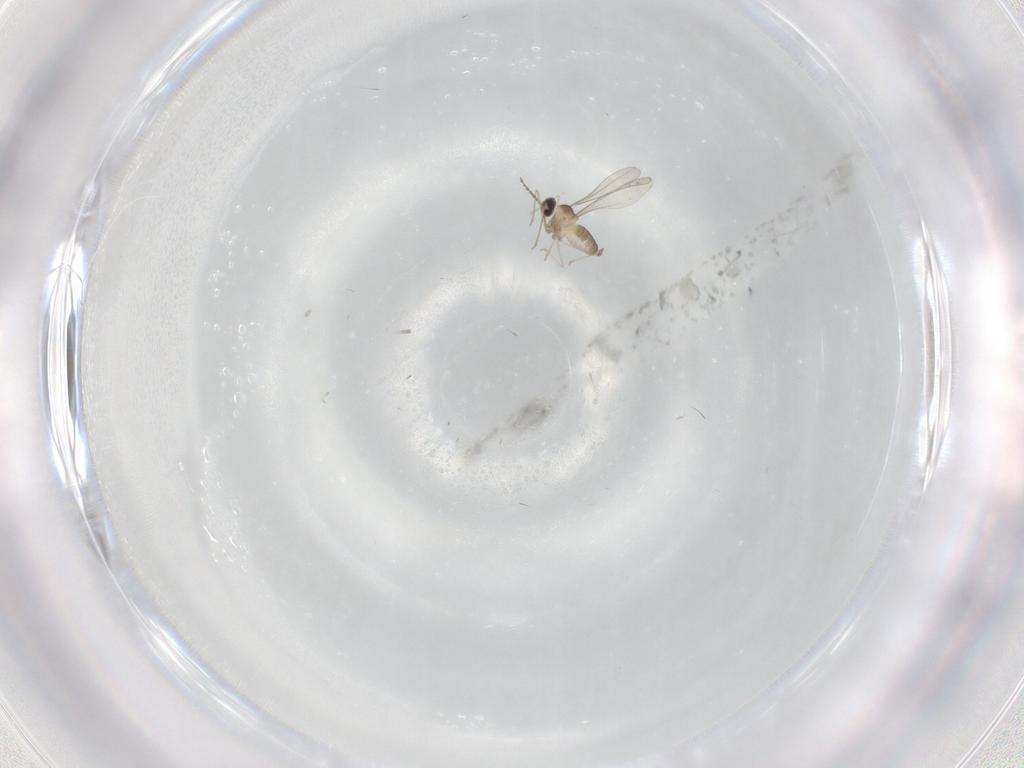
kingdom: Animalia
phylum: Arthropoda
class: Insecta
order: Diptera
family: Cecidomyiidae
